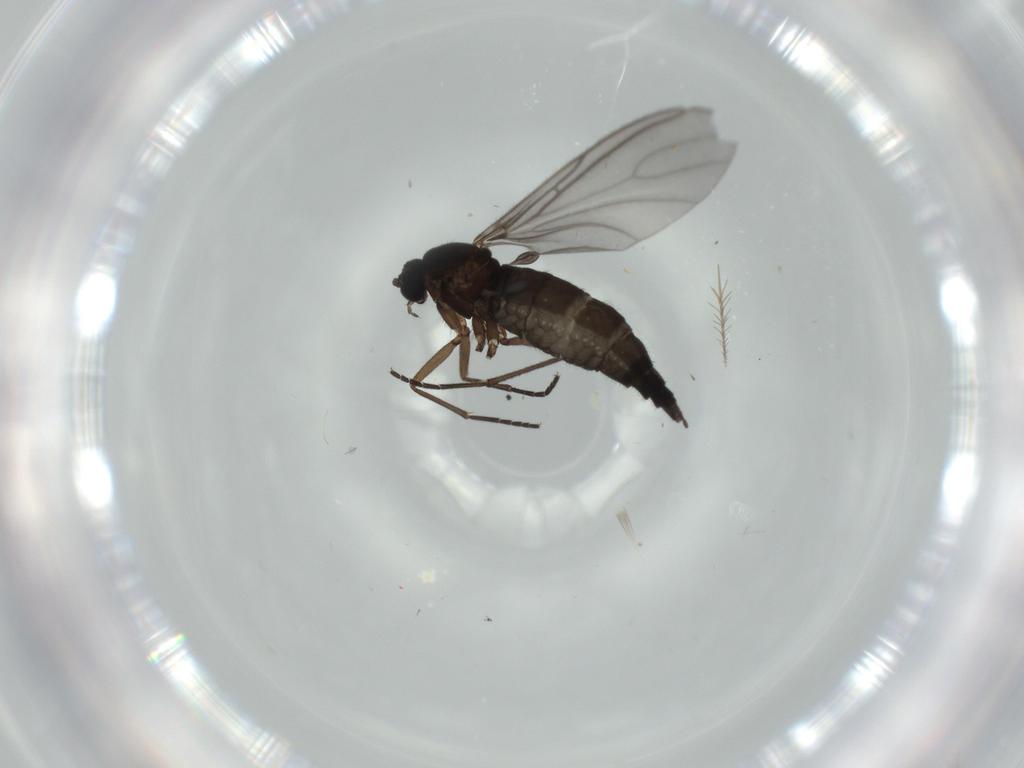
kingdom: Animalia
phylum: Arthropoda
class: Insecta
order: Diptera
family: Sciaridae
